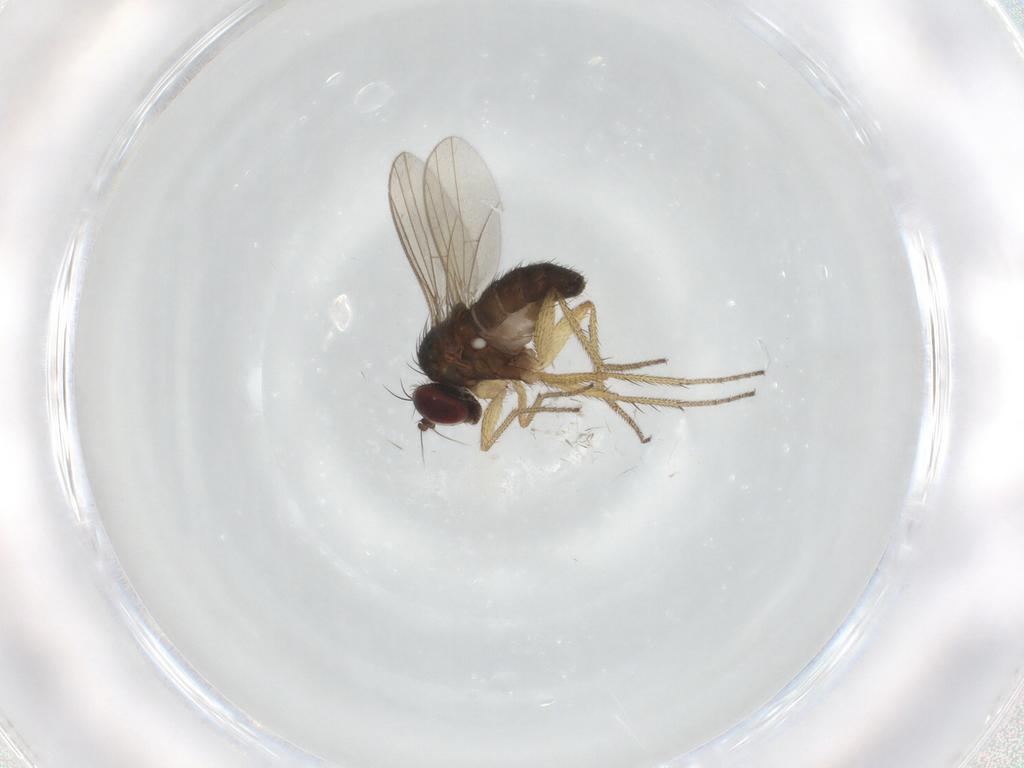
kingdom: Animalia
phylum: Arthropoda
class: Insecta
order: Diptera
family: Dolichopodidae
